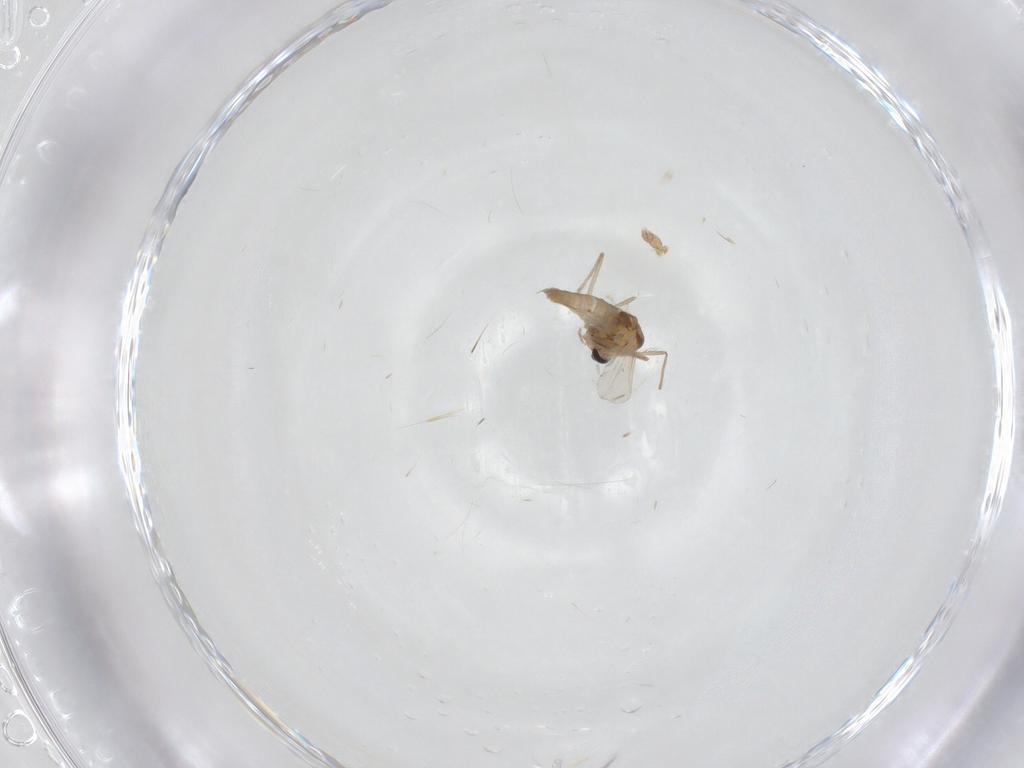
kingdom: Animalia
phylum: Arthropoda
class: Insecta
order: Diptera
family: Chironomidae
